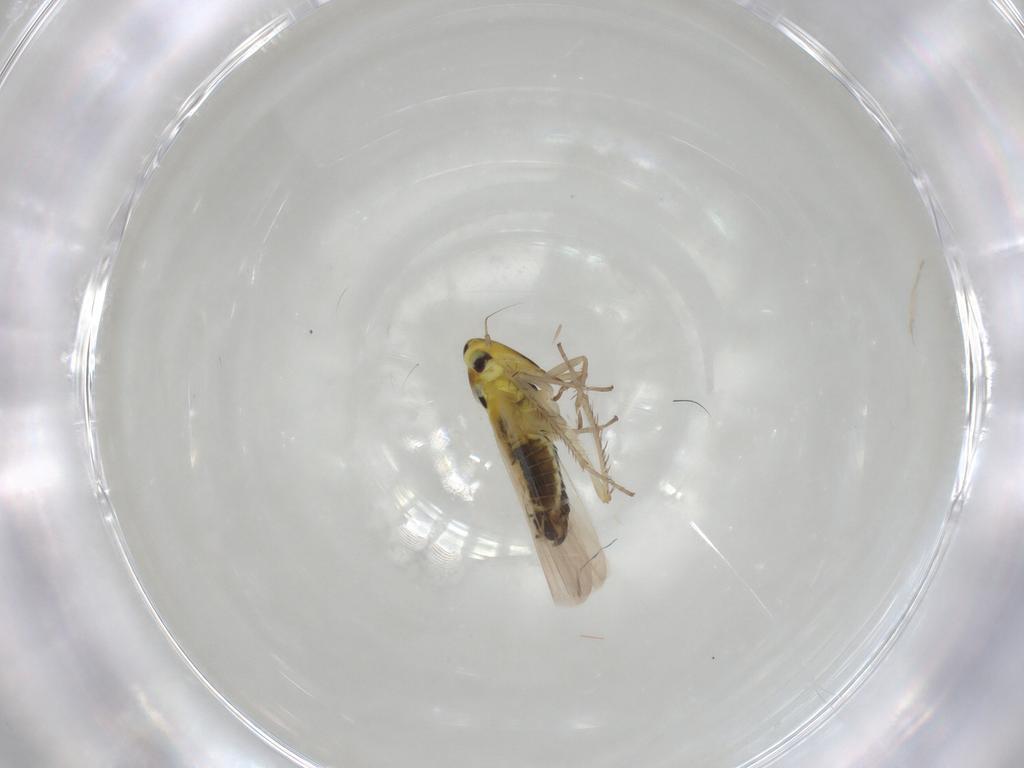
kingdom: Animalia
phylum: Arthropoda
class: Insecta
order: Hemiptera
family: Cicadellidae
